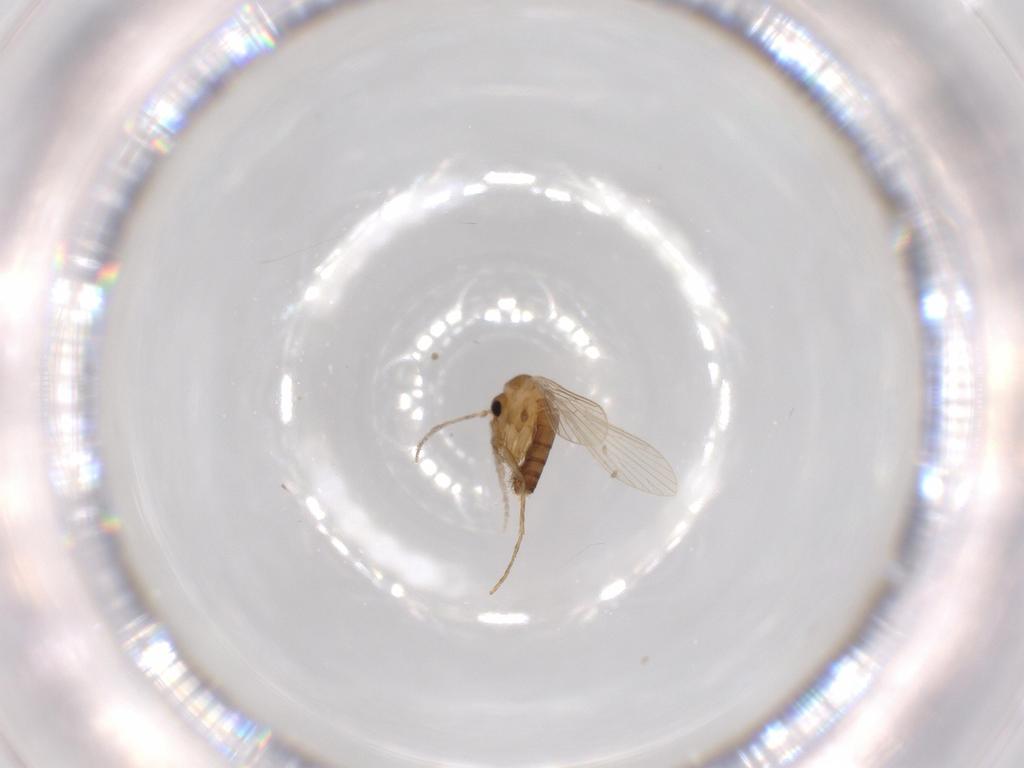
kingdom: Animalia
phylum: Arthropoda
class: Insecta
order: Diptera
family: Psychodidae
